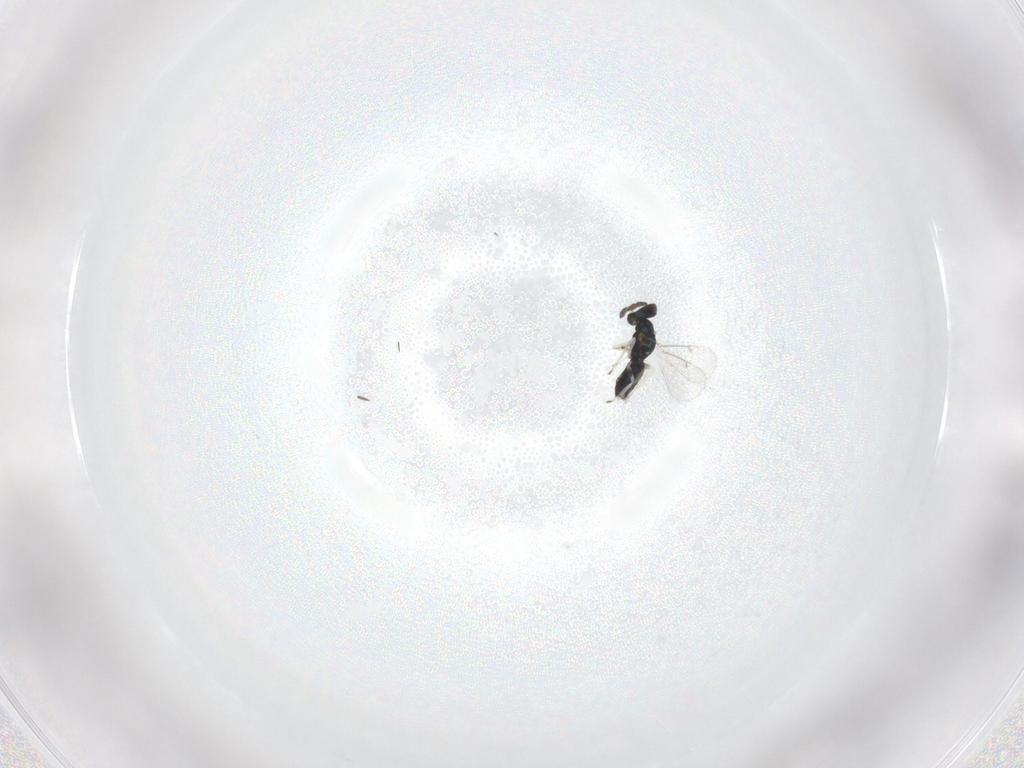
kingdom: Animalia
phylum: Arthropoda
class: Insecta
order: Hymenoptera
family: Eulophidae
